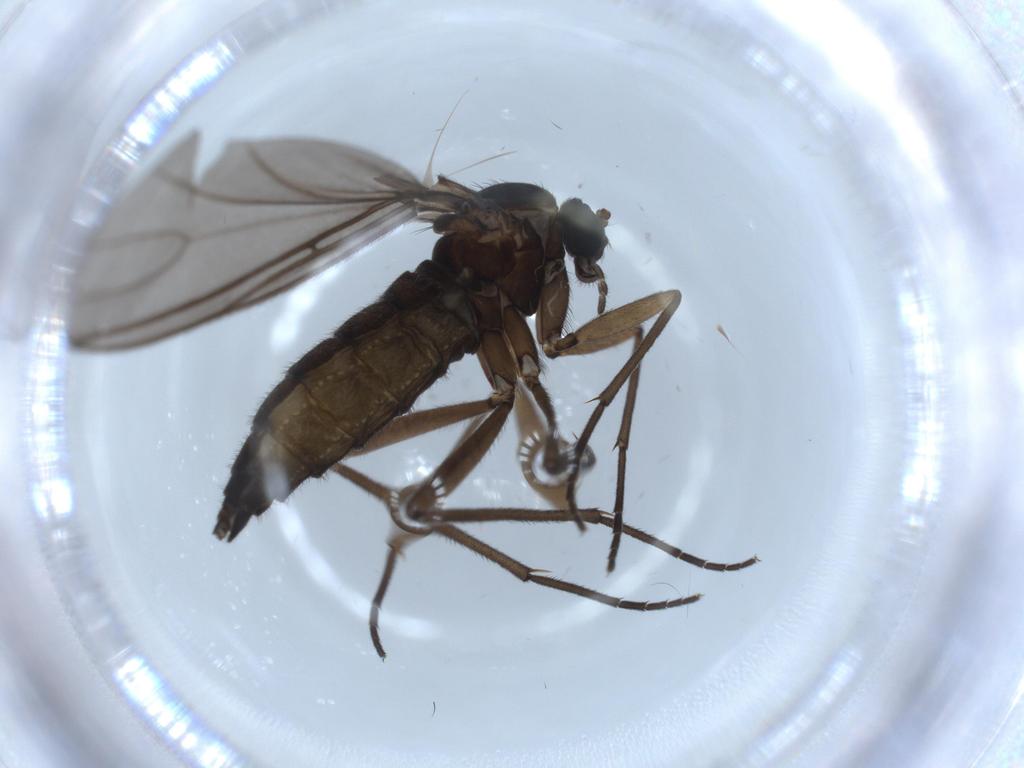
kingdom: Animalia
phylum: Arthropoda
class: Insecta
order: Diptera
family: Sciaridae
